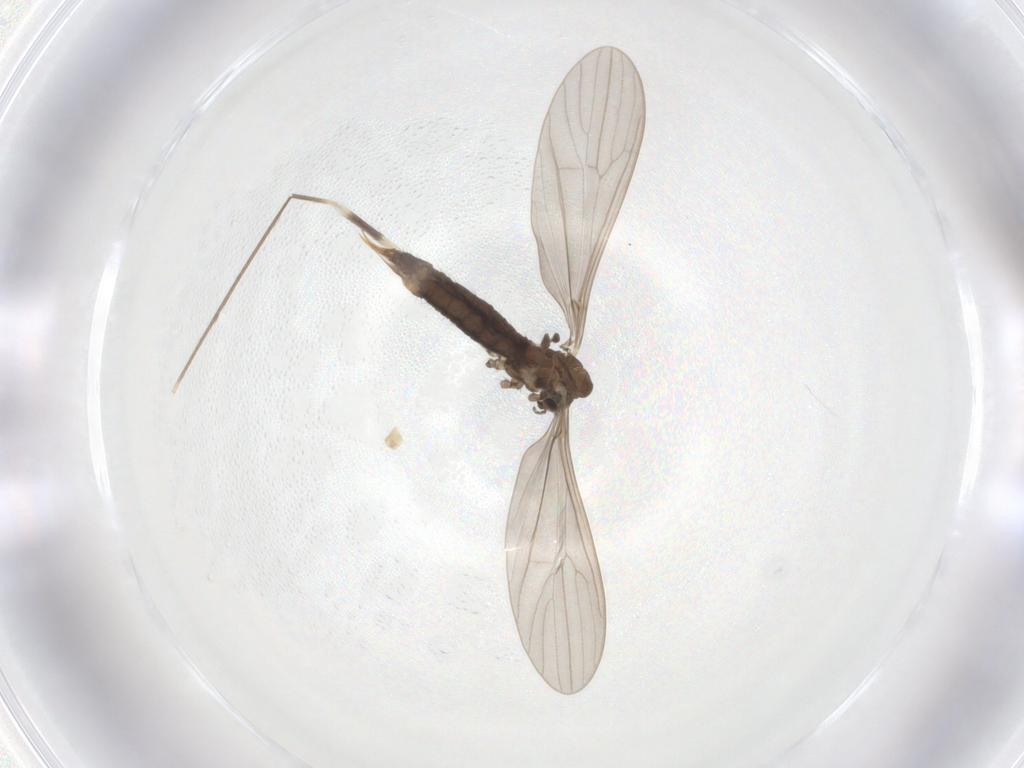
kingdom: Animalia
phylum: Arthropoda
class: Insecta
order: Diptera
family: Limoniidae
